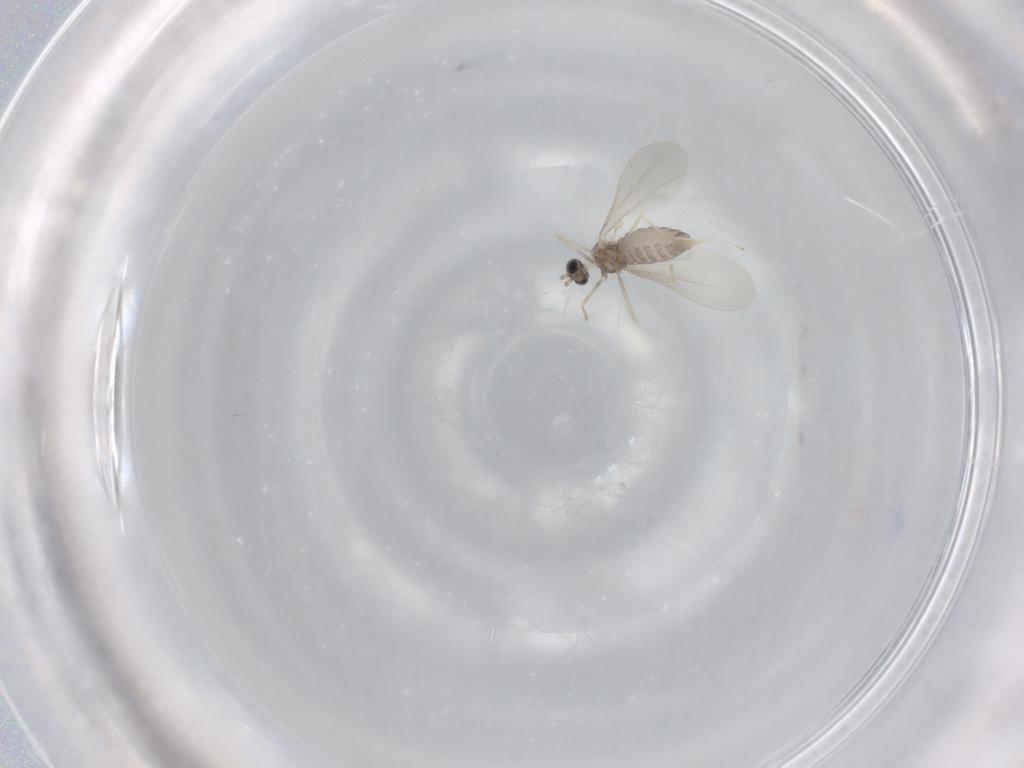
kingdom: Animalia
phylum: Arthropoda
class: Insecta
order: Diptera
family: Cecidomyiidae
